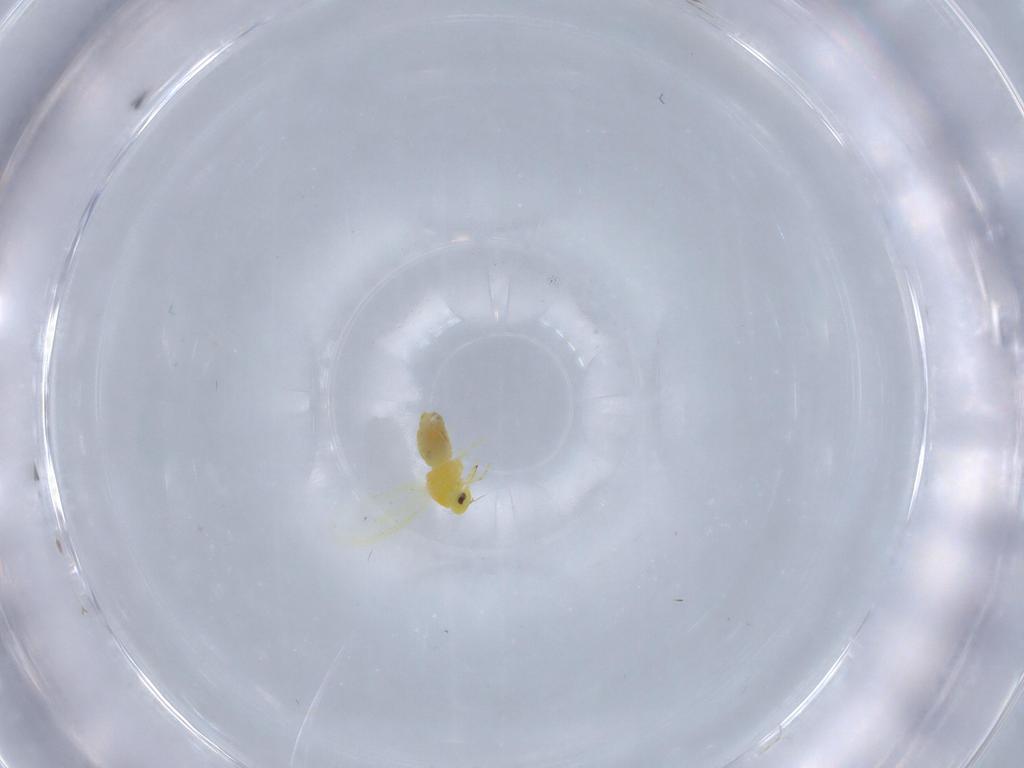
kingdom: Animalia
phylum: Arthropoda
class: Insecta
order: Hemiptera
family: Aleyrodidae
